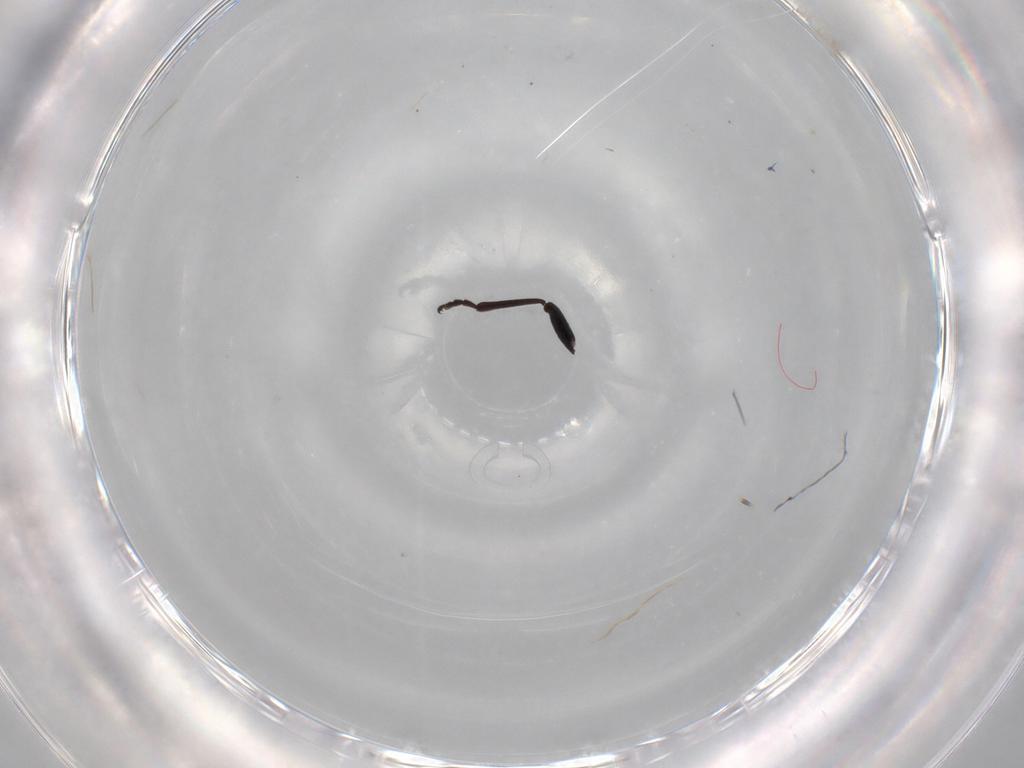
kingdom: Animalia
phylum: Arthropoda
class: Insecta
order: Diptera
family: Cecidomyiidae
